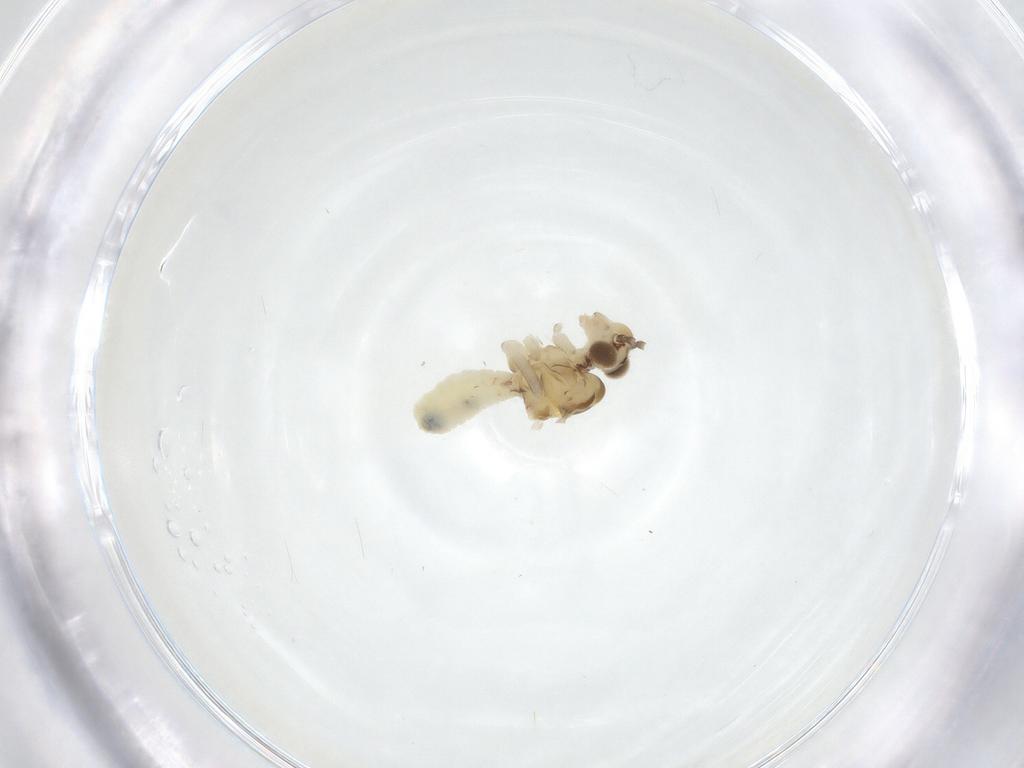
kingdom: Animalia
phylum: Arthropoda
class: Insecta
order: Psocodea
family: Caeciliusidae
